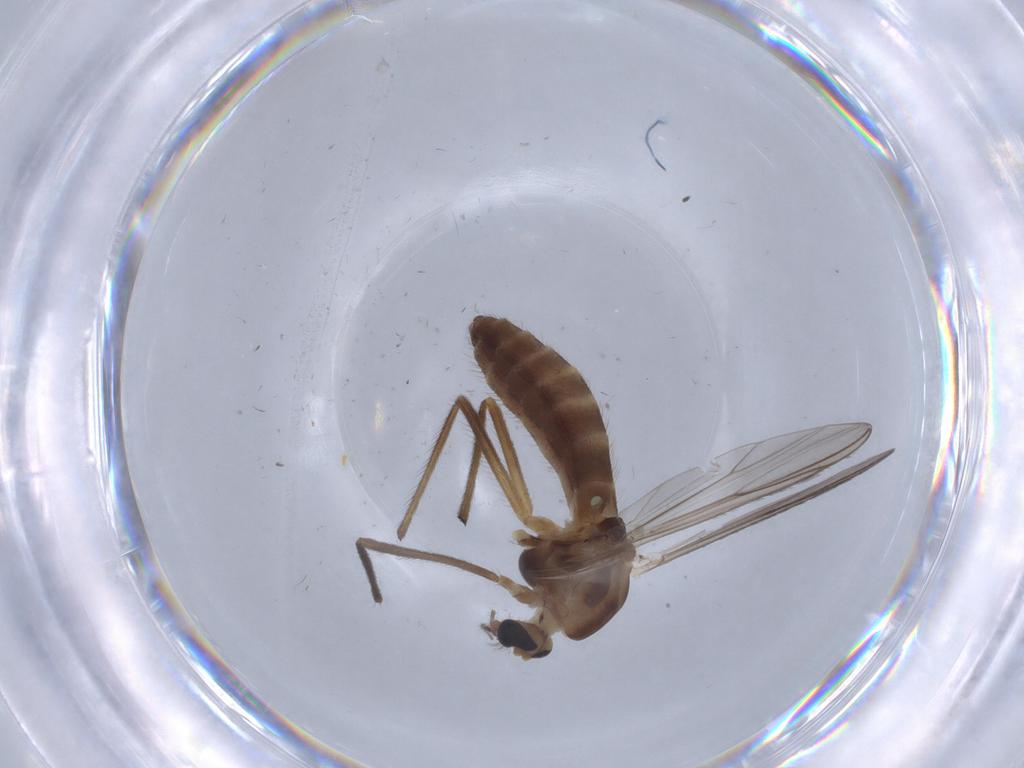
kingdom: Animalia
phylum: Arthropoda
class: Insecta
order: Diptera
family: Chironomidae
